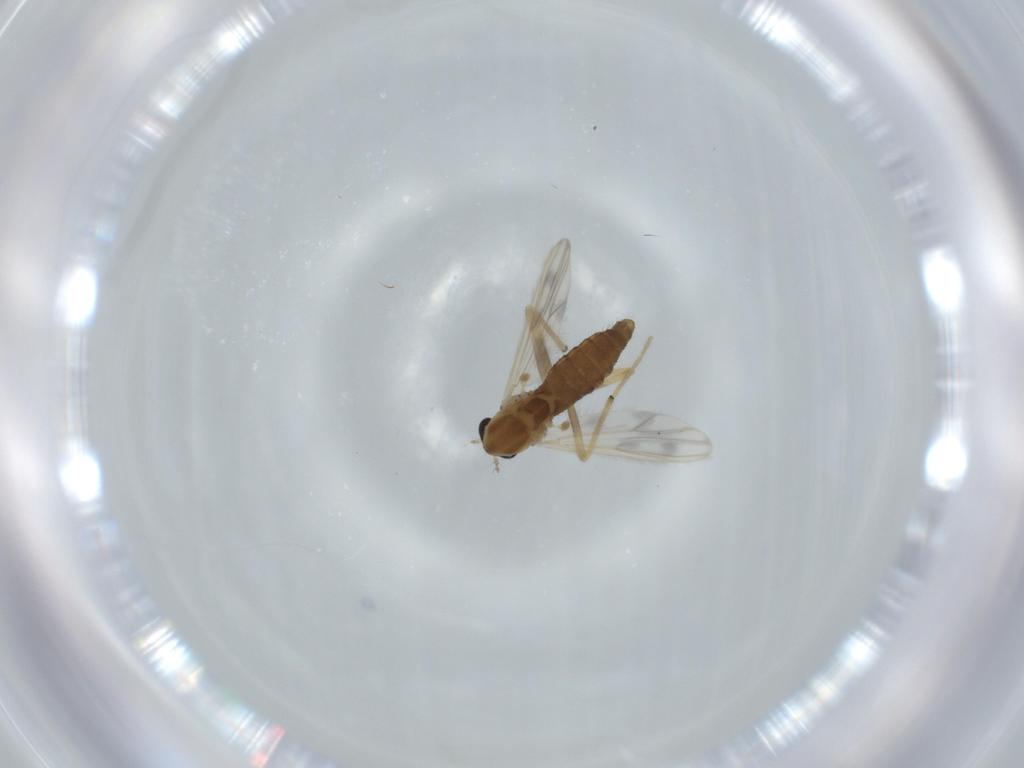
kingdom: Animalia
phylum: Arthropoda
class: Insecta
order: Diptera
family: Chironomidae
